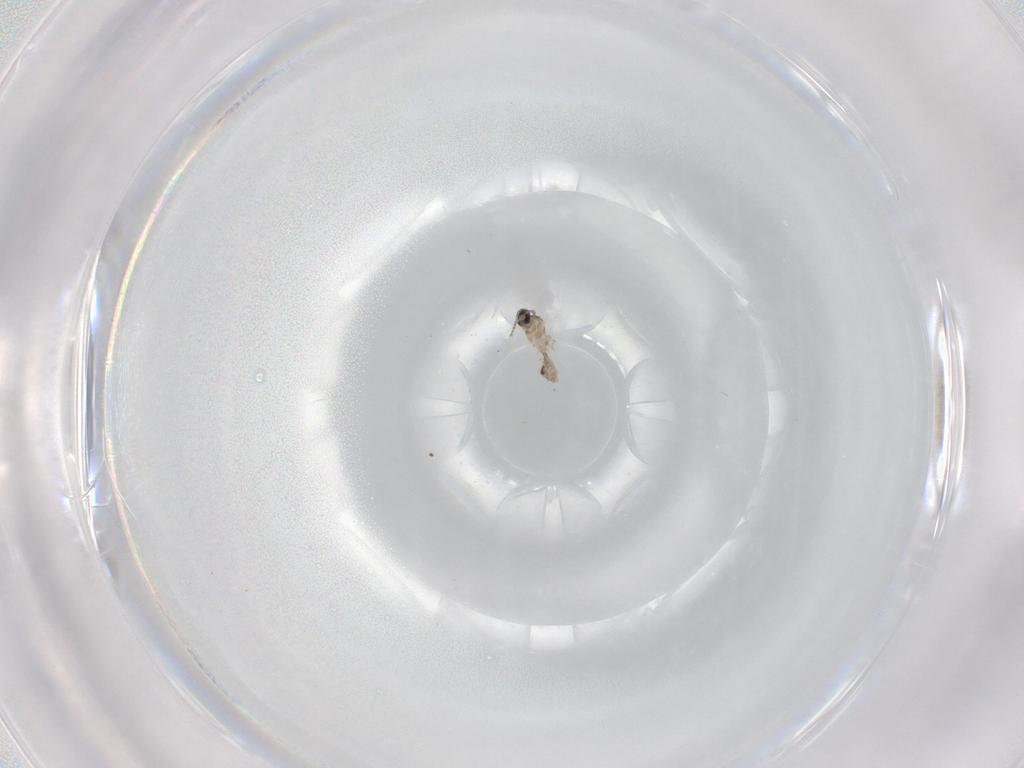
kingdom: Animalia
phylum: Arthropoda
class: Insecta
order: Diptera
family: Cecidomyiidae
